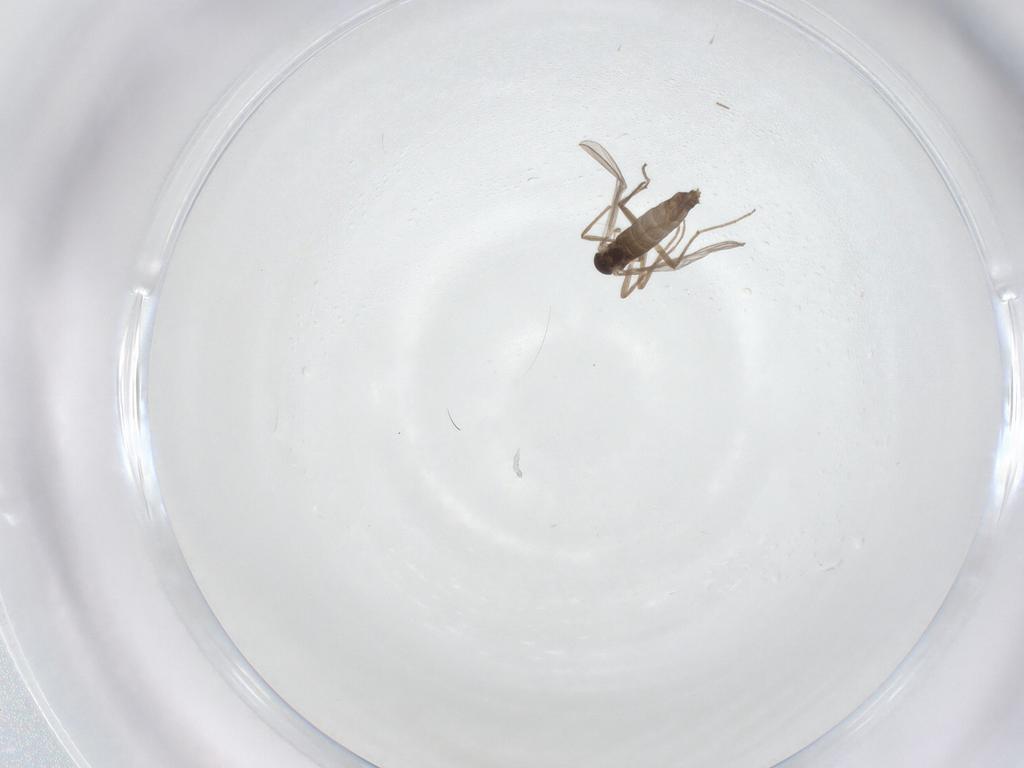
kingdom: Animalia
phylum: Arthropoda
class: Insecta
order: Diptera
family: Chironomidae
